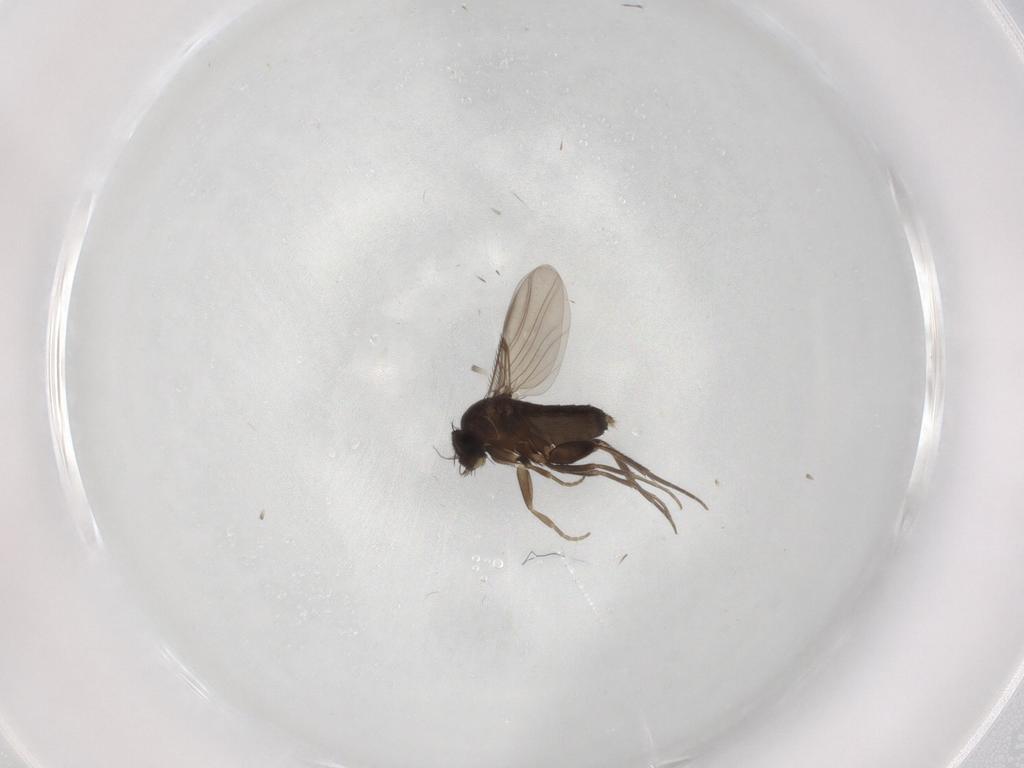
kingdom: Animalia
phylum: Arthropoda
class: Insecta
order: Diptera
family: Phoridae
